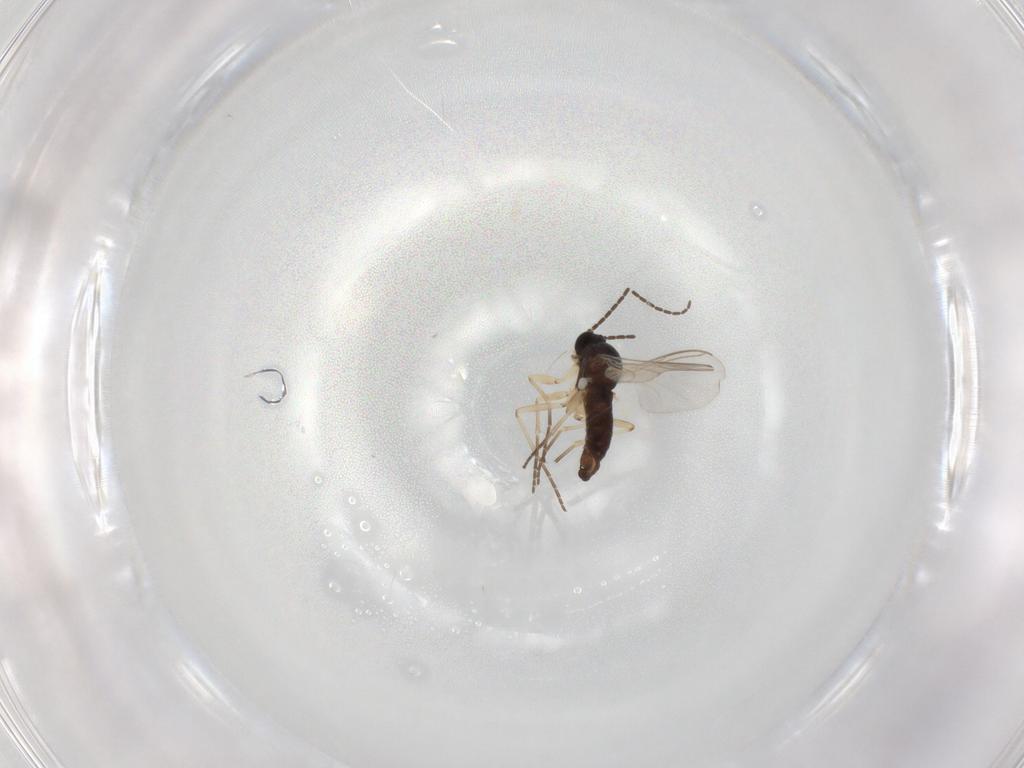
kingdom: Animalia
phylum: Arthropoda
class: Insecta
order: Diptera
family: Sciaridae
